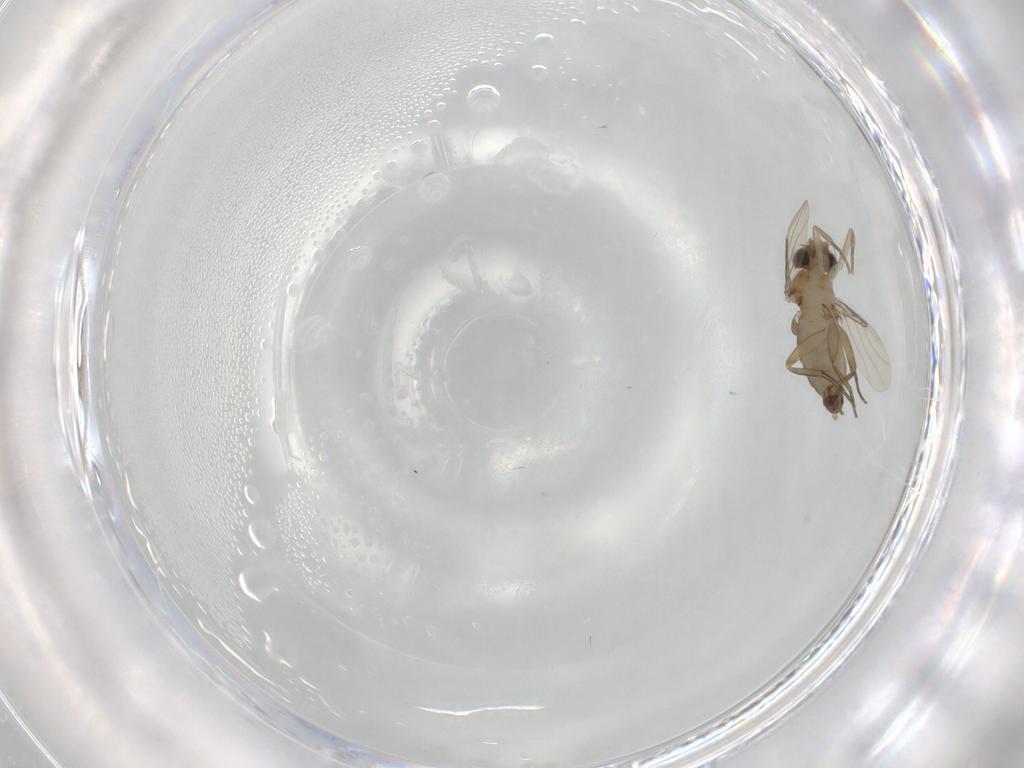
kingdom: Animalia
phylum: Arthropoda
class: Insecta
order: Diptera
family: Phoridae
